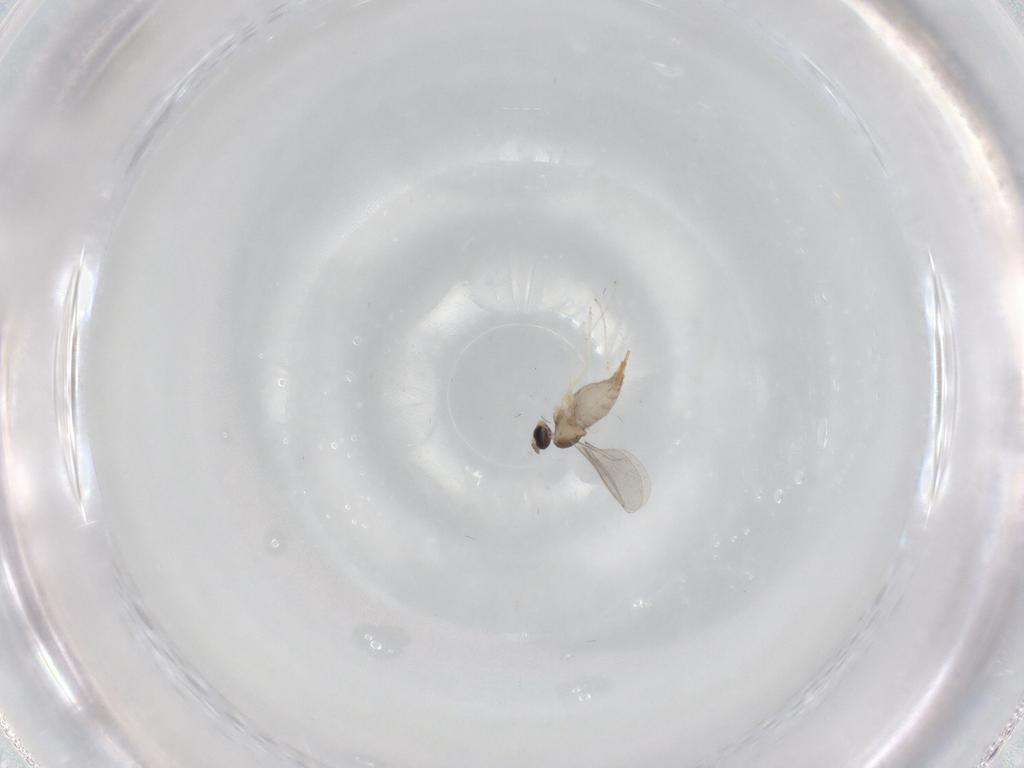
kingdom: Animalia
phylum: Arthropoda
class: Insecta
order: Diptera
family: Cecidomyiidae
